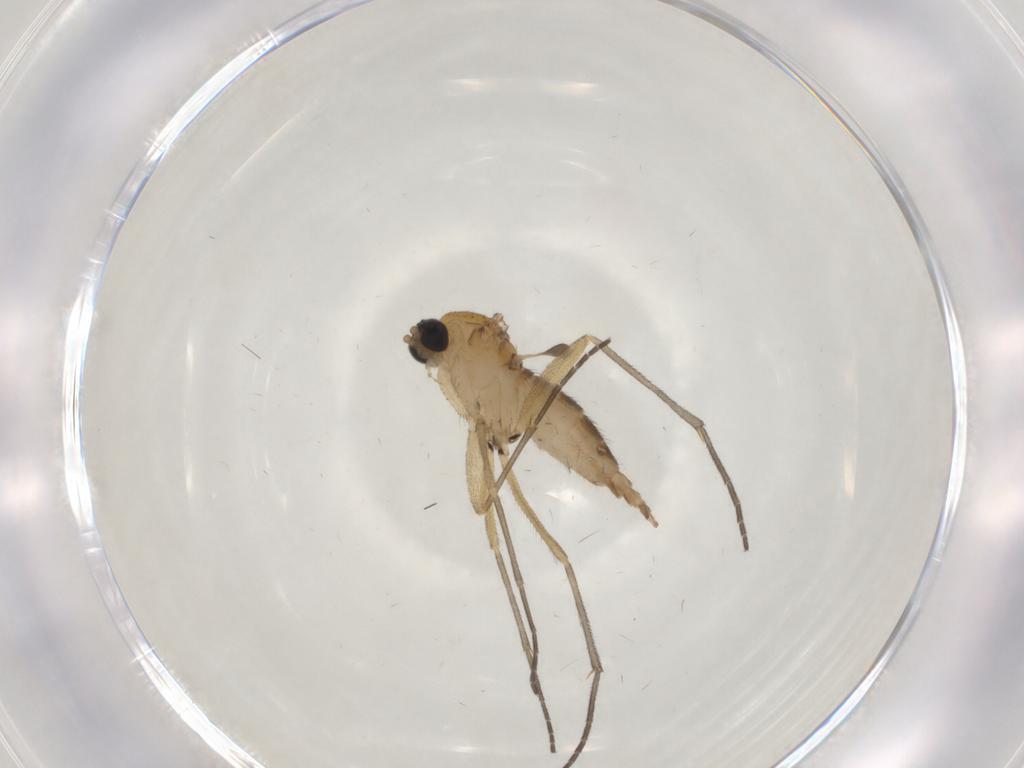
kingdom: Animalia
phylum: Arthropoda
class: Insecta
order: Diptera
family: Sciaridae
